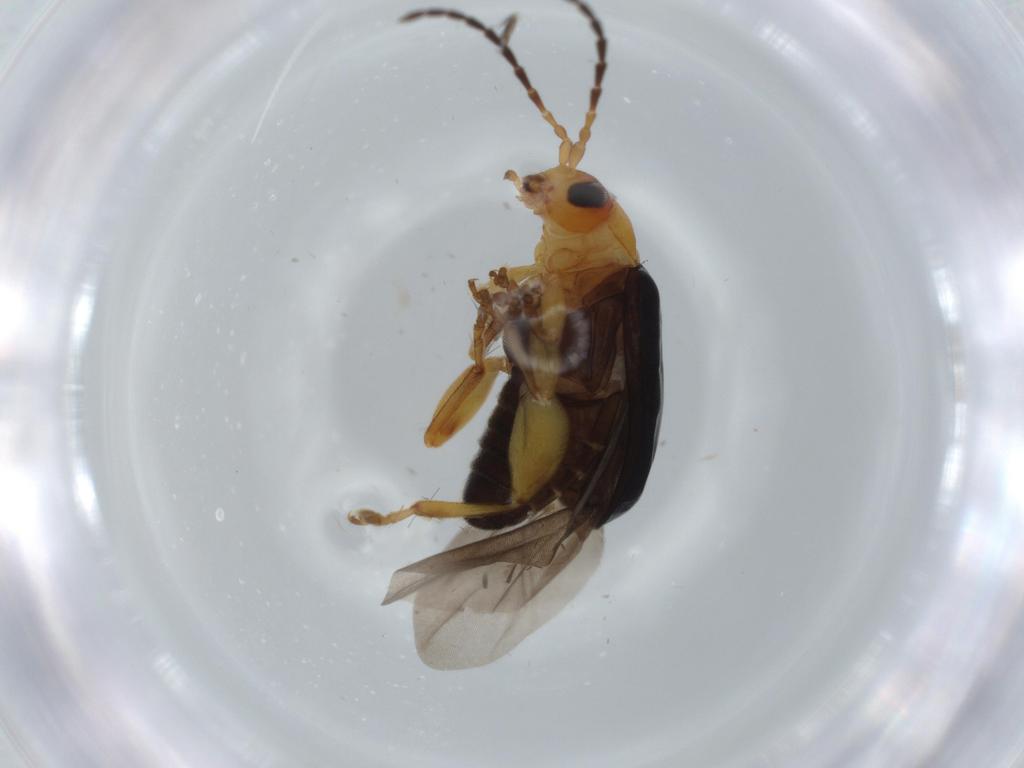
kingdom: Animalia
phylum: Arthropoda
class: Insecta
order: Coleoptera
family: Chrysomelidae
